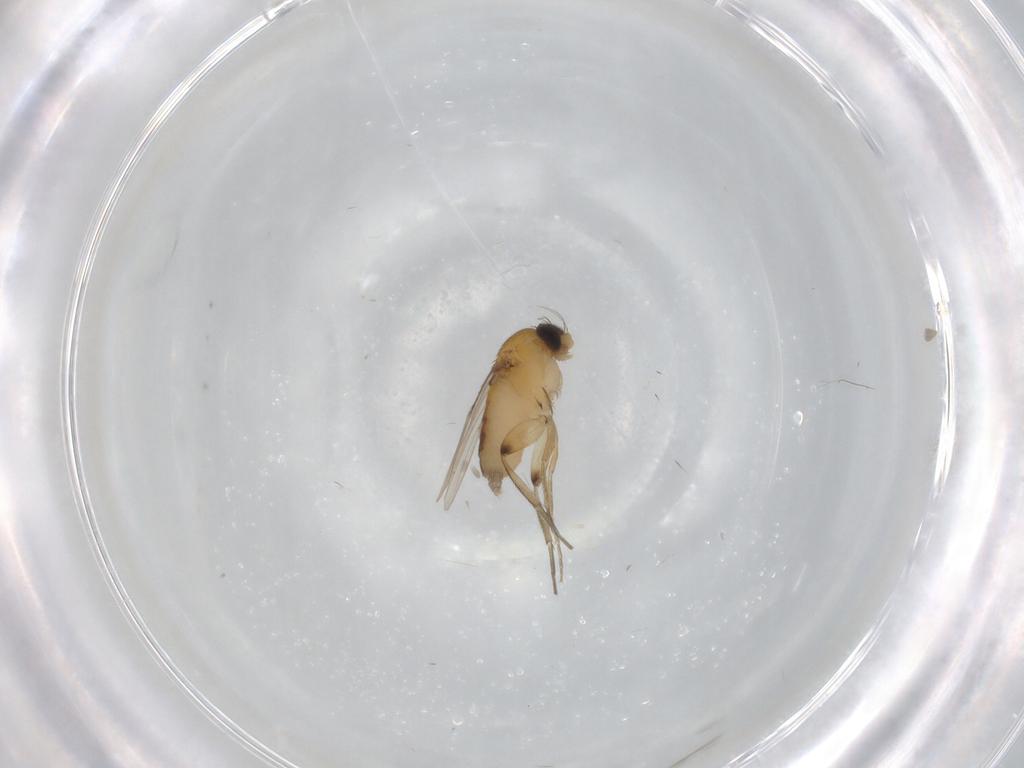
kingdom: Animalia
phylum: Arthropoda
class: Insecta
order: Diptera
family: Phoridae
